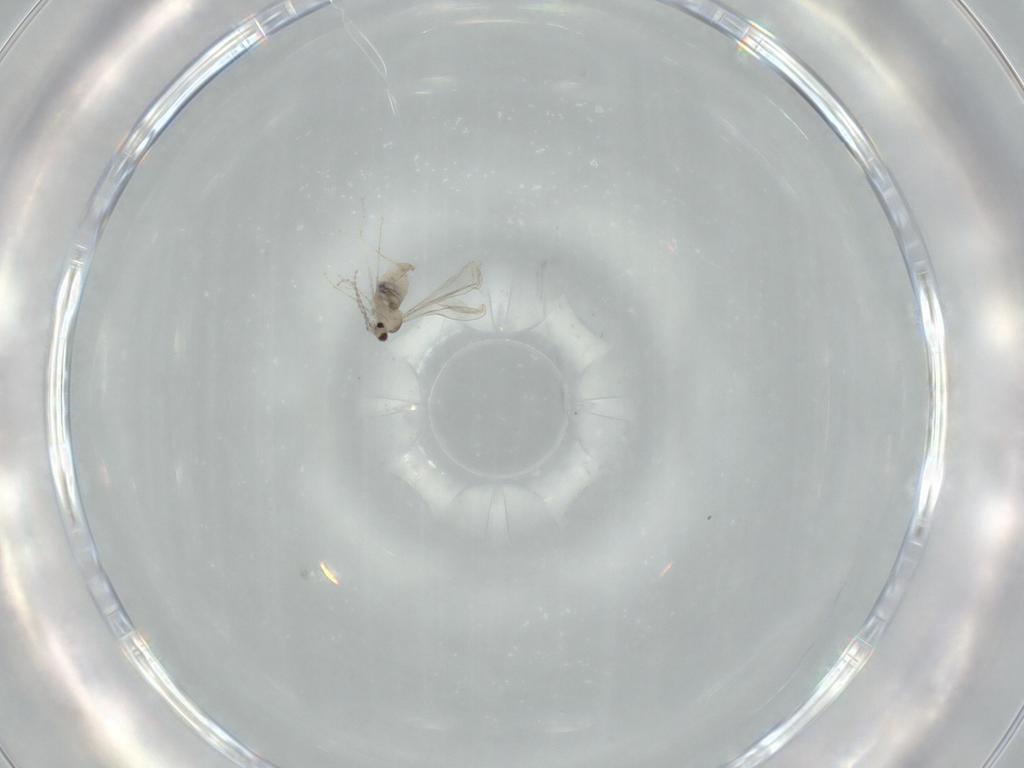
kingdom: Animalia
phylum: Arthropoda
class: Insecta
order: Diptera
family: Cecidomyiidae
